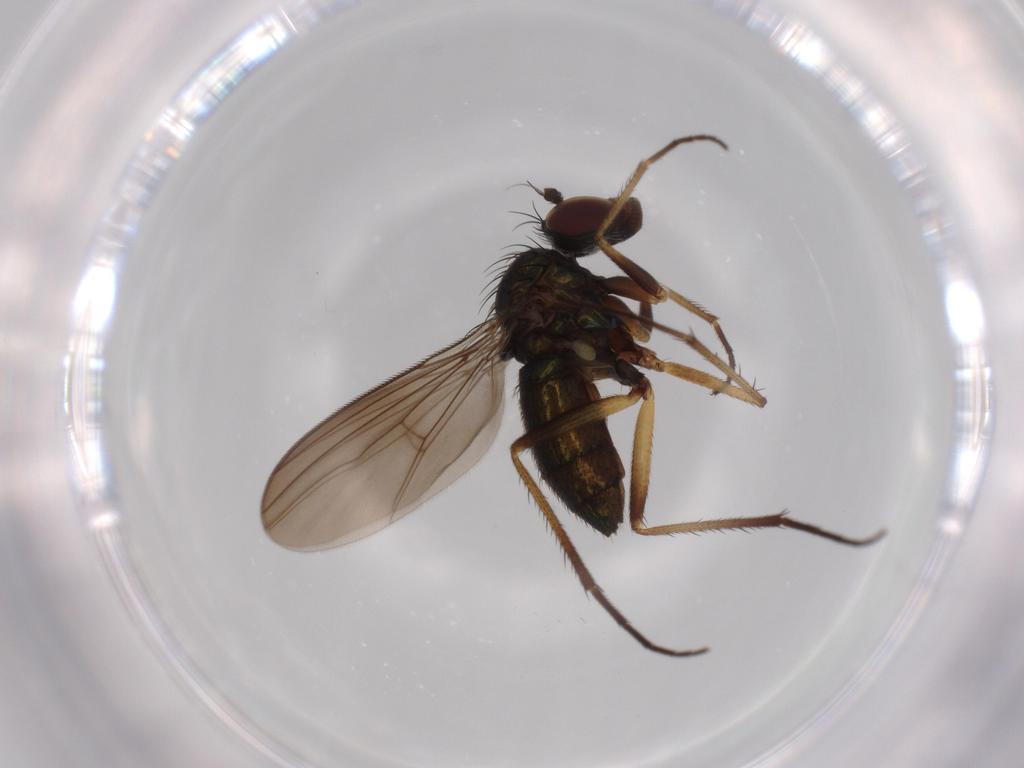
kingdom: Animalia
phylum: Arthropoda
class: Insecta
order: Diptera
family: Dolichopodidae
